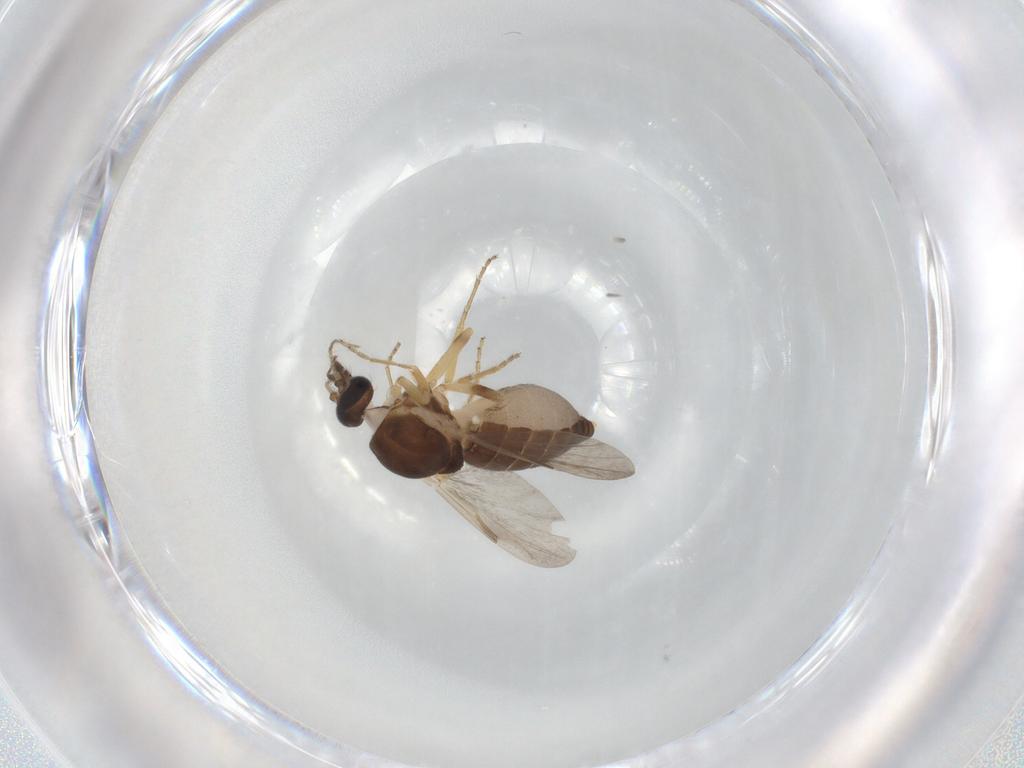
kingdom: Animalia
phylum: Arthropoda
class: Insecta
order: Diptera
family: Ceratopogonidae
